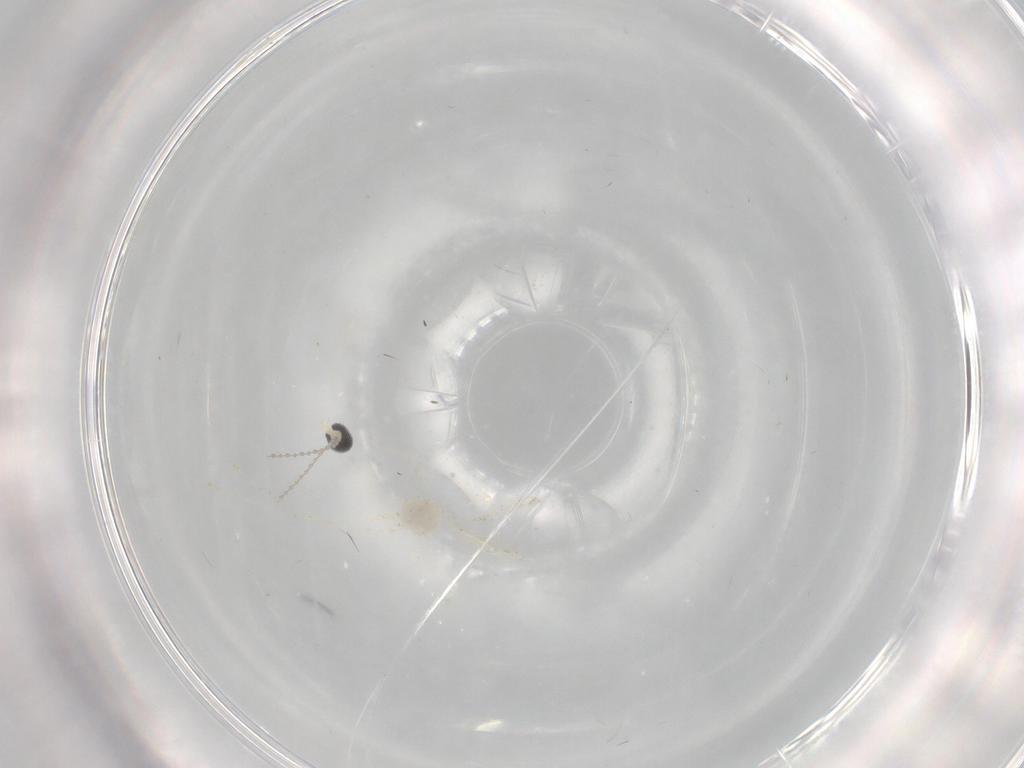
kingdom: Animalia
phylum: Arthropoda
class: Insecta
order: Diptera
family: Cecidomyiidae
